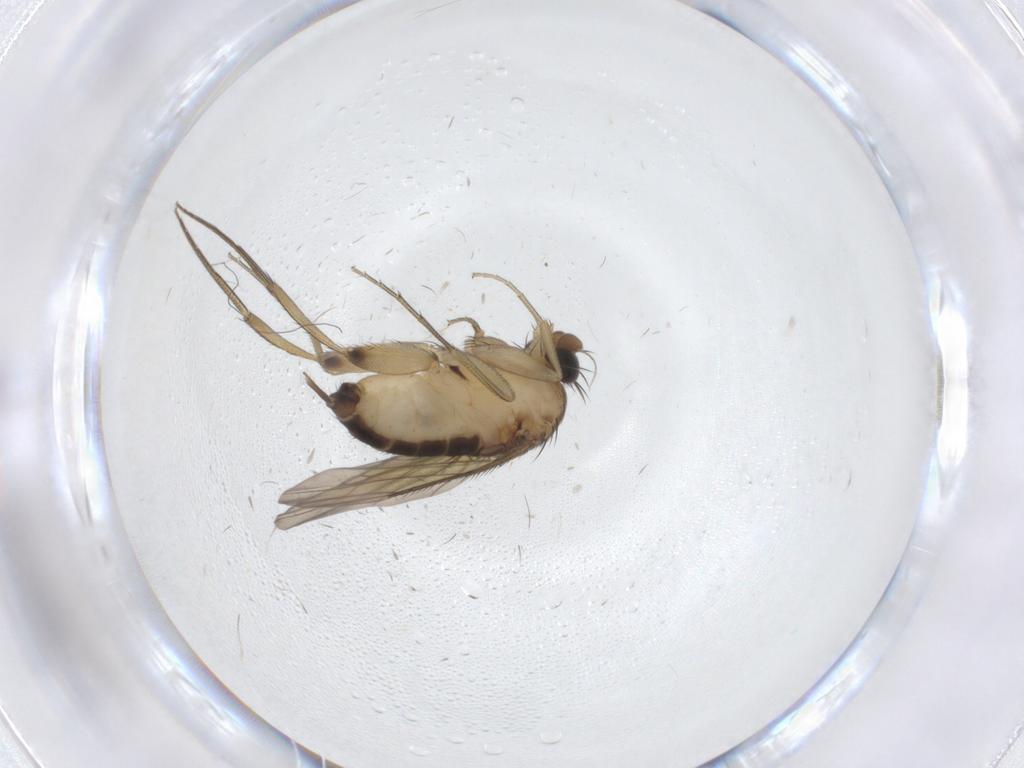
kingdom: Animalia
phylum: Arthropoda
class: Insecta
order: Diptera
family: Phoridae
